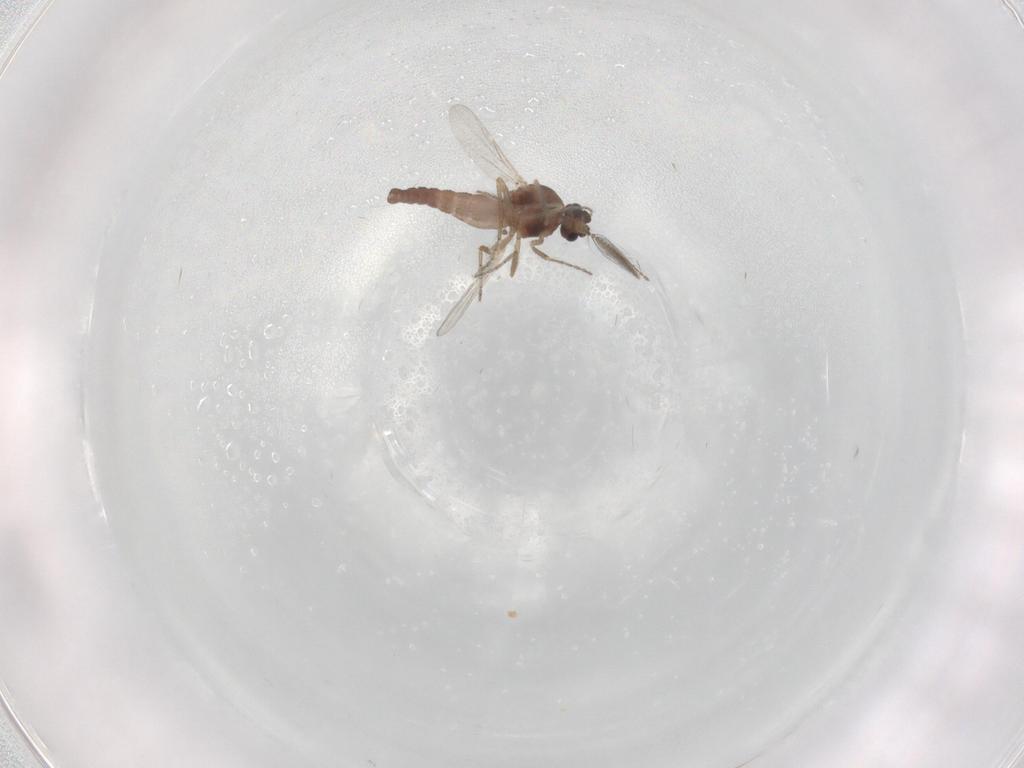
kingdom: Animalia
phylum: Arthropoda
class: Insecta
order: Diptera
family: Ceratopogonidae
